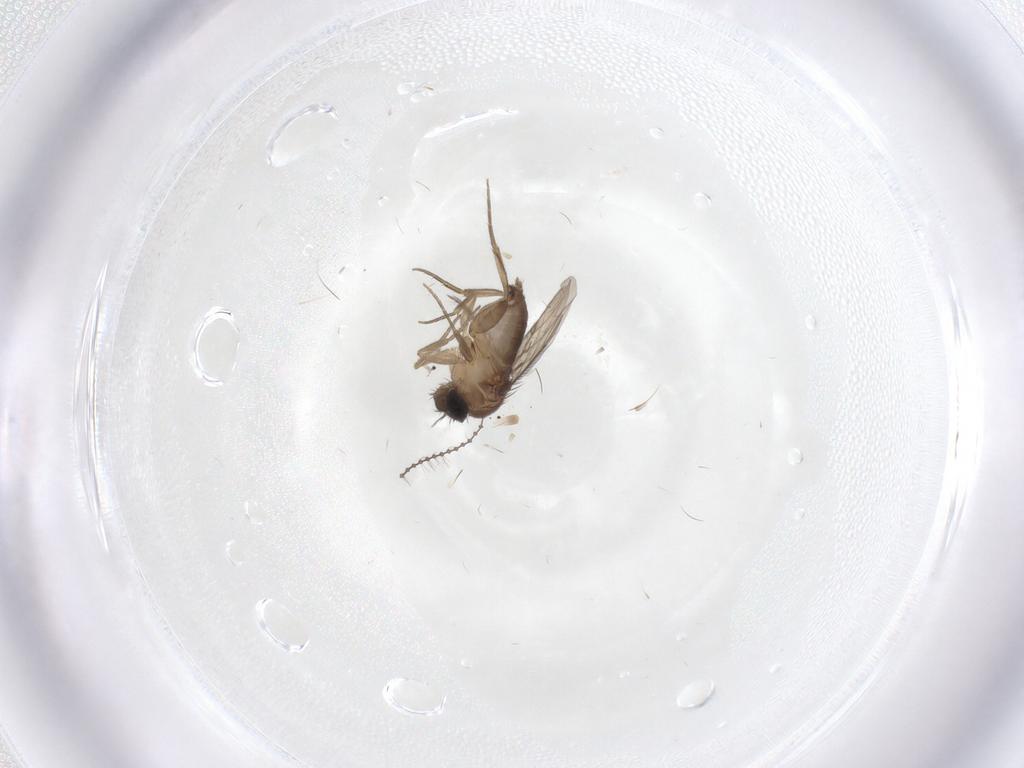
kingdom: Animalia
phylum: Arthropoda
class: Insecta
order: Diptera
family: Phoridae
